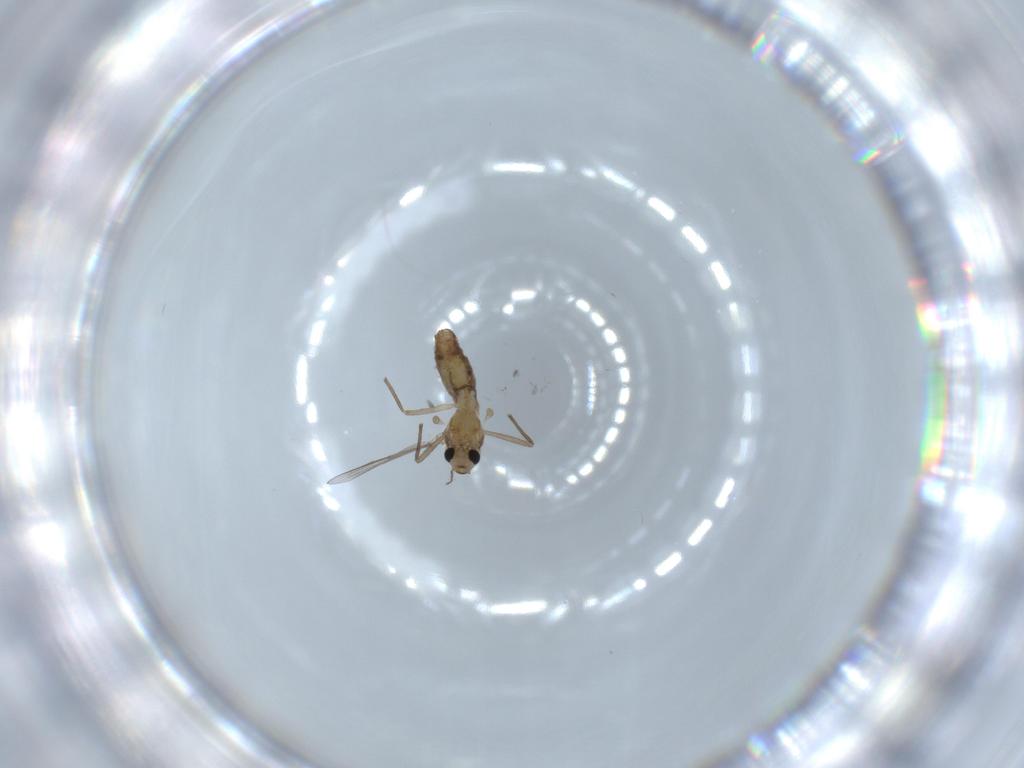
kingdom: Animalia
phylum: Arthropoda
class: Insecta
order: Diptera
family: Chironomidae
